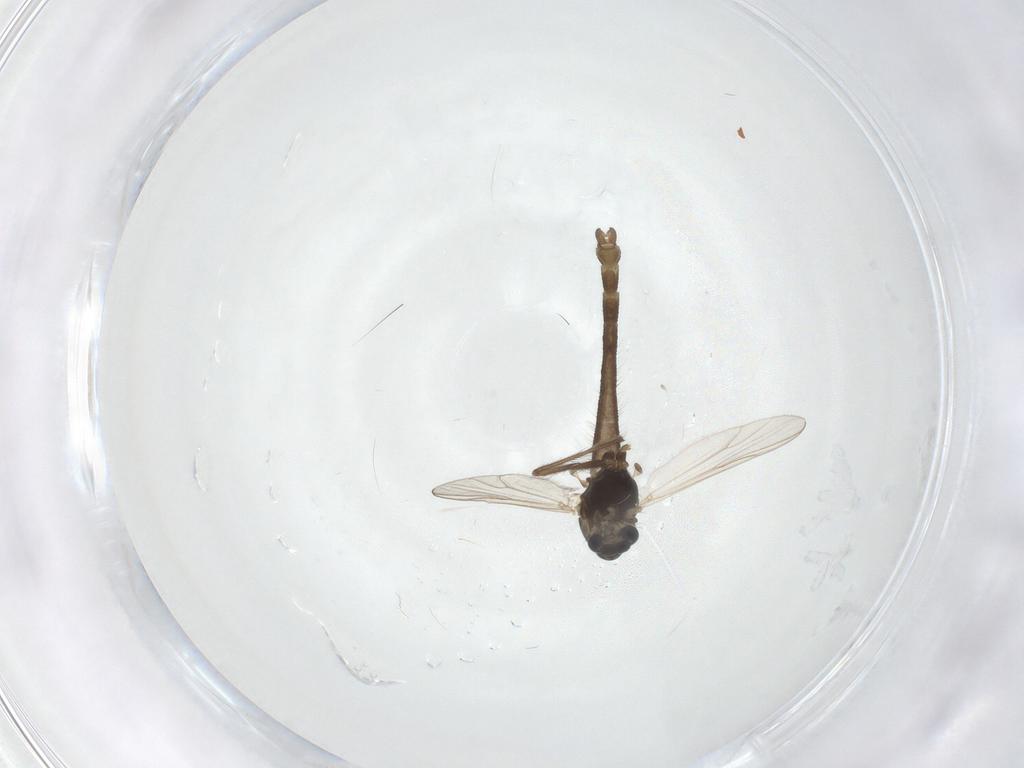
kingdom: Animalia
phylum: Arthropoda
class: Insecta
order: Diptera
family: Chironomidae
